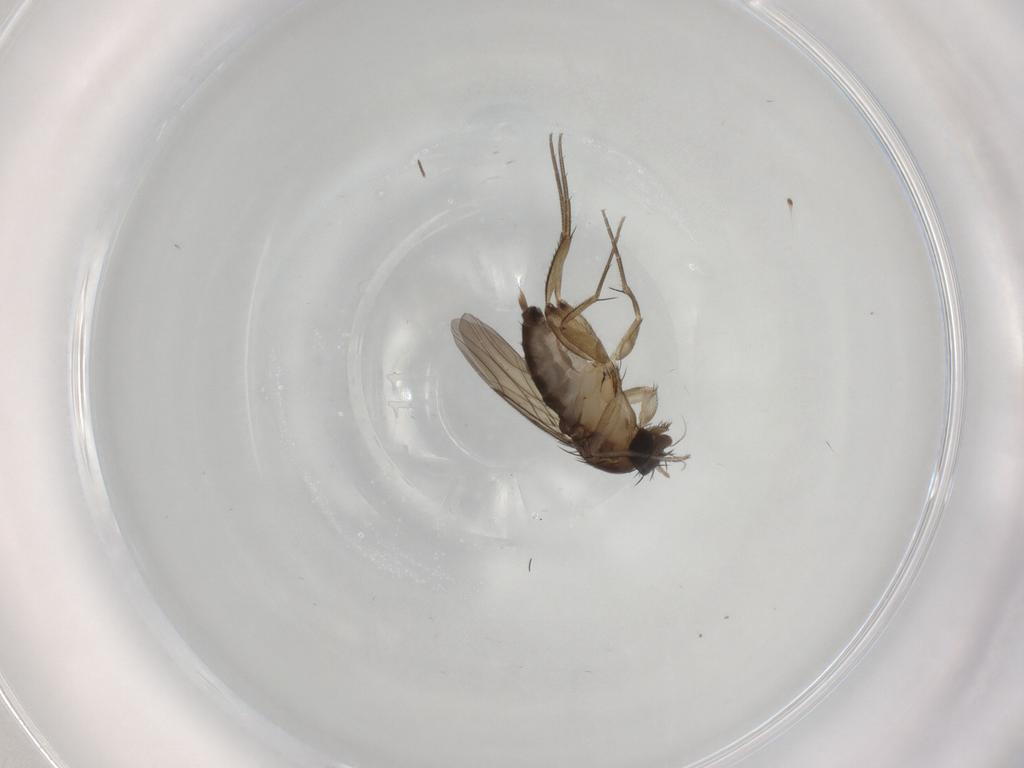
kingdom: Animalia
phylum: Arthropoda
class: Insecta
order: Diptera
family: Phoridae
